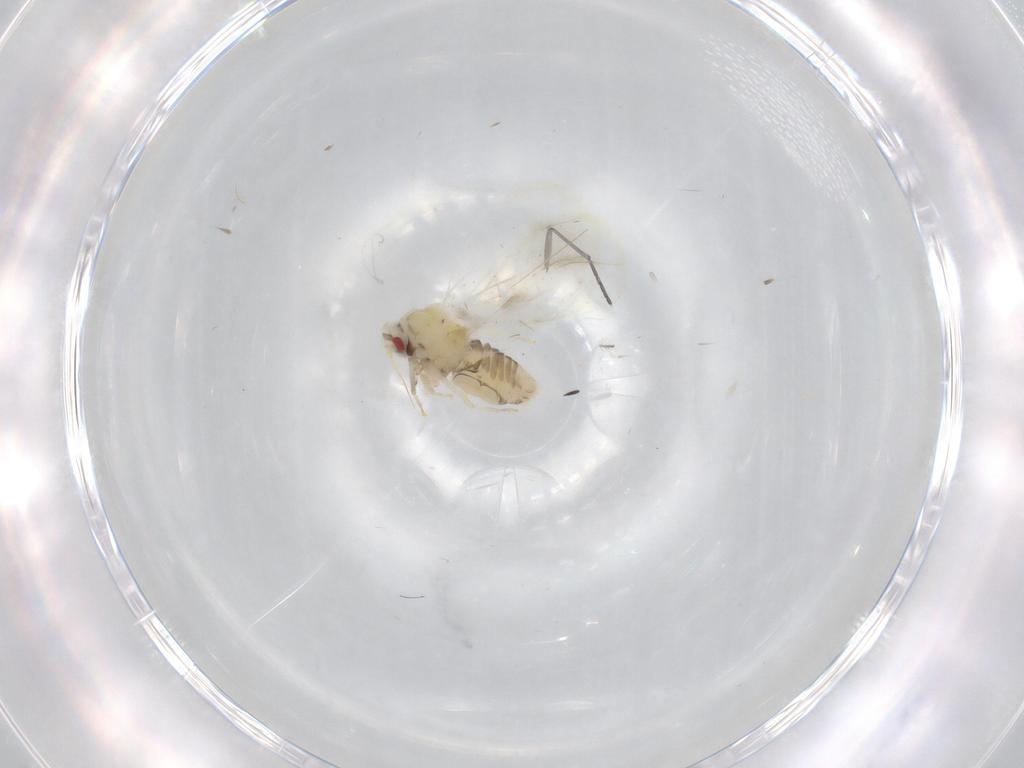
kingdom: Animalia
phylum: Arthropoda
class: Insecta
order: Hemiptera
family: Aleyrodidae
